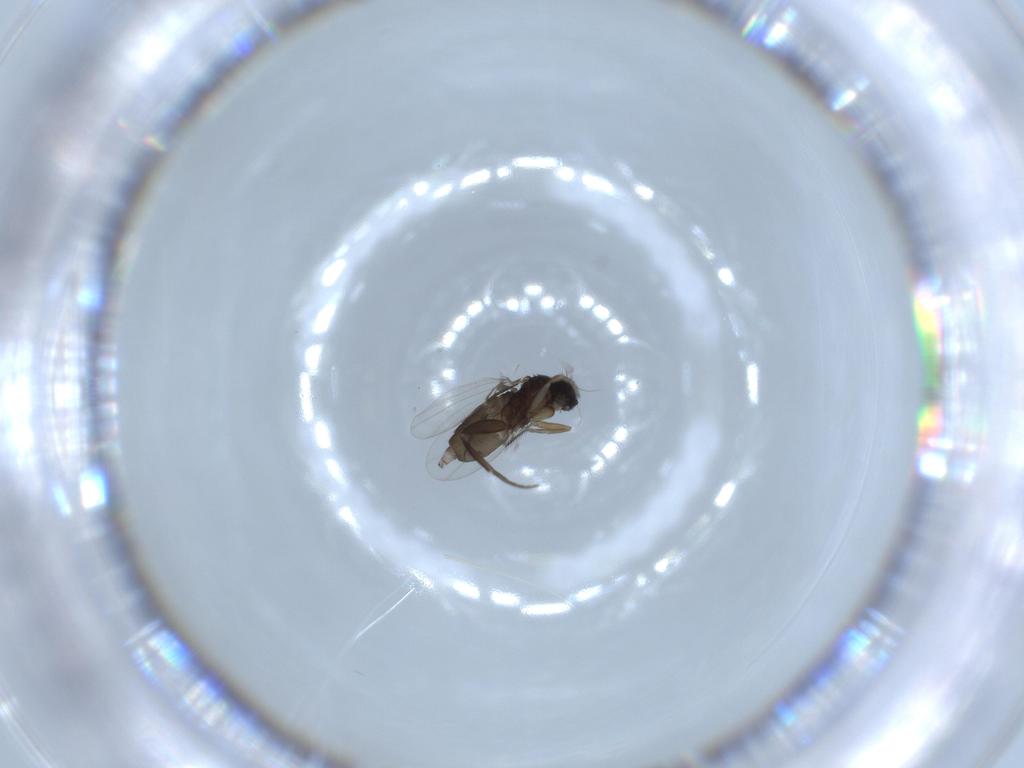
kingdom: Animalia
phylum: Arthropoda
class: Insecta
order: Diptera
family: Phoridae
